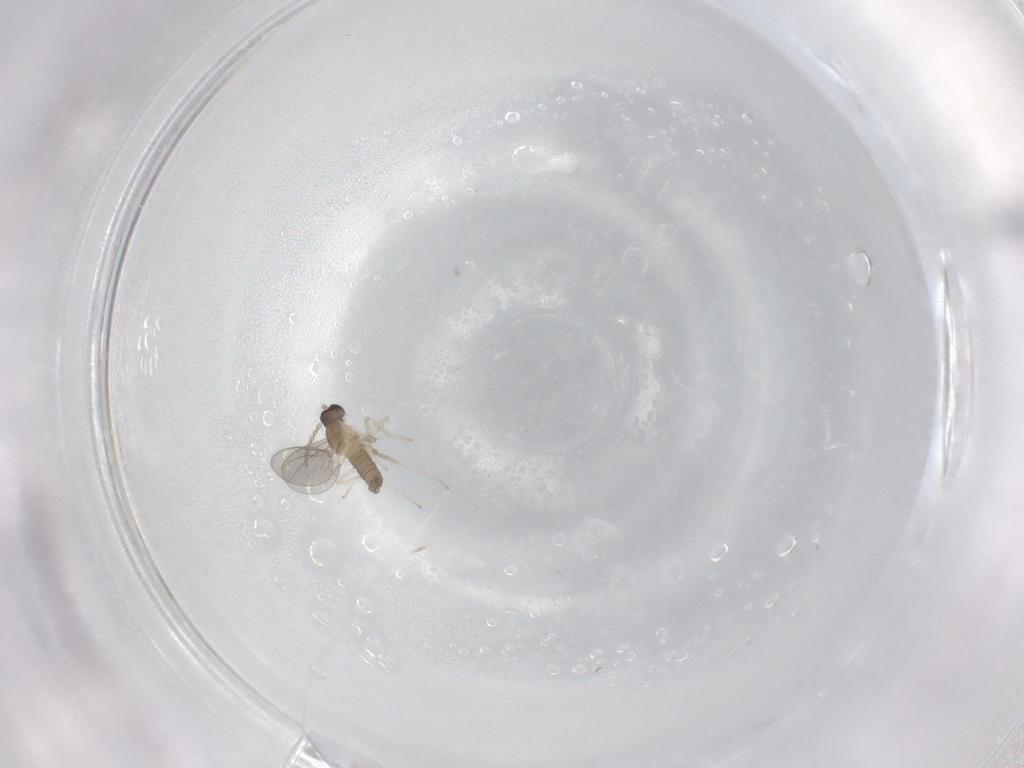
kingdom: Animalia
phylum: Arthropoda
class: Insecta
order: Diptera
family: Cecidomyiidae
